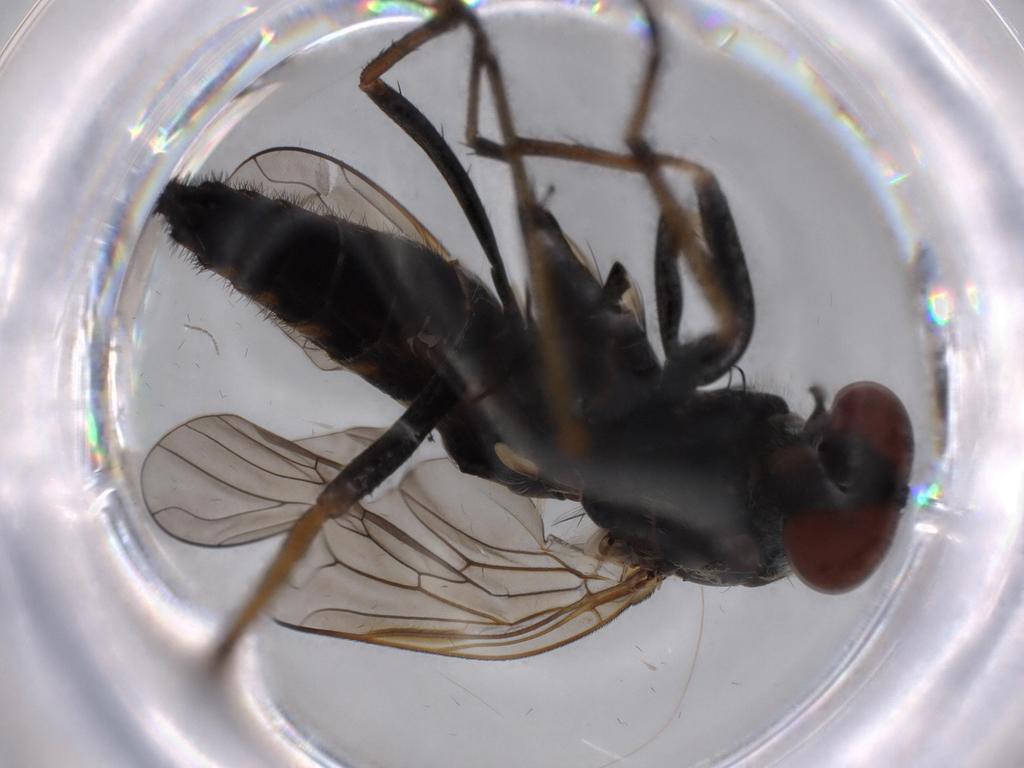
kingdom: Animalia
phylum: Arthropoda
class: Insecta
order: Diptera
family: Therevidae
